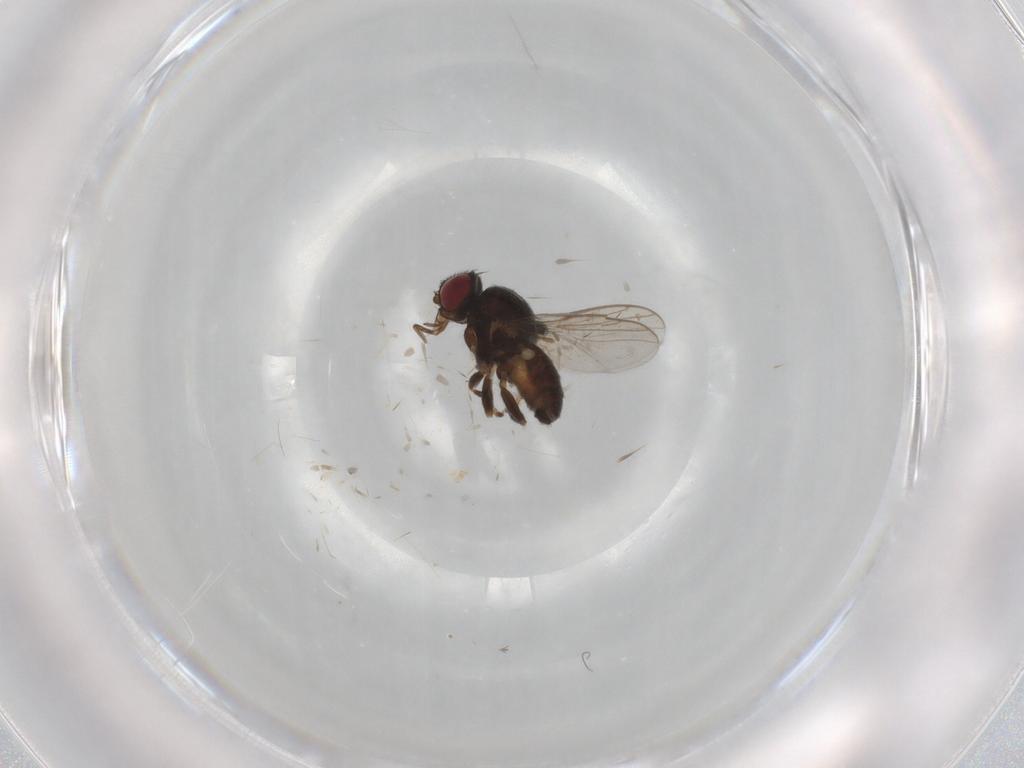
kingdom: Animalia
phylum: Arthropoda
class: Insecta
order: Diptera
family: Chloropidae
